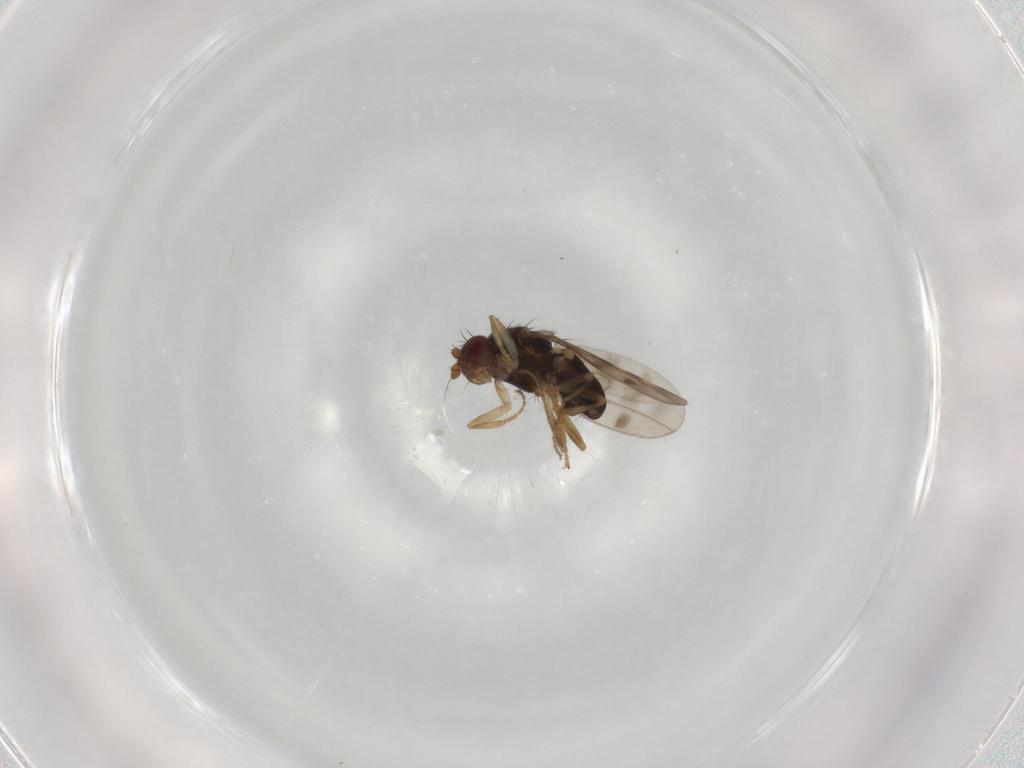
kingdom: Animalia
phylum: Arthropoda
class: Insecta
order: Diptera
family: Sphaeroceridae
